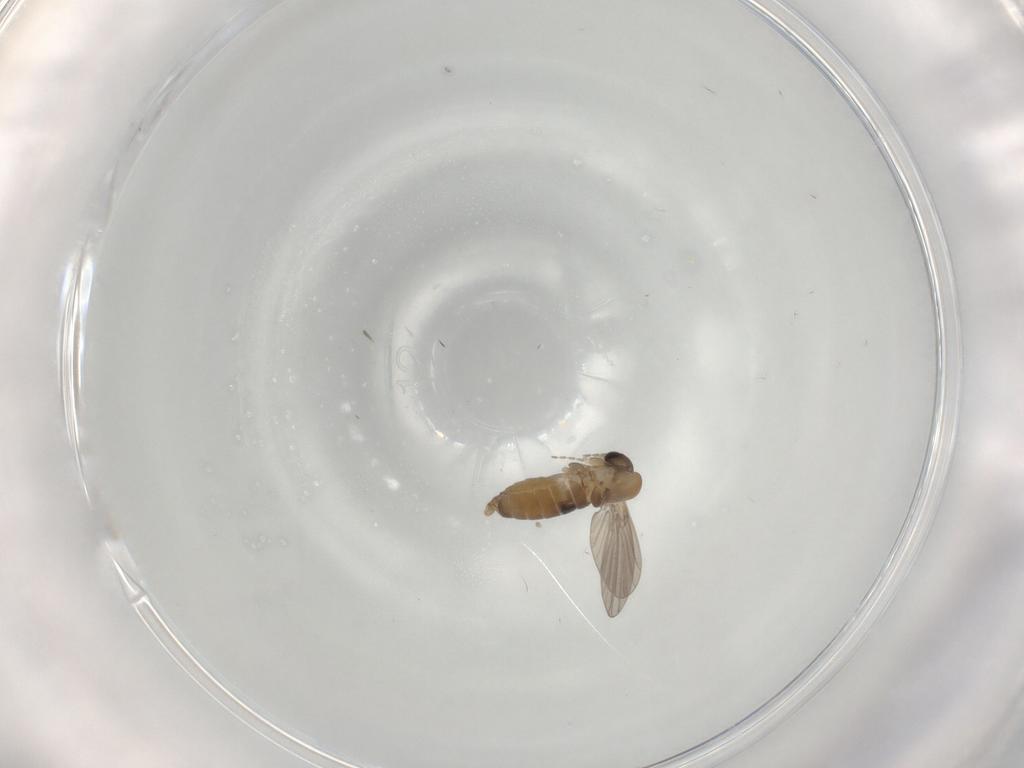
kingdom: Animalia
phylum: Arthropoda
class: Insecta
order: Diptera
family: Psychodidae
